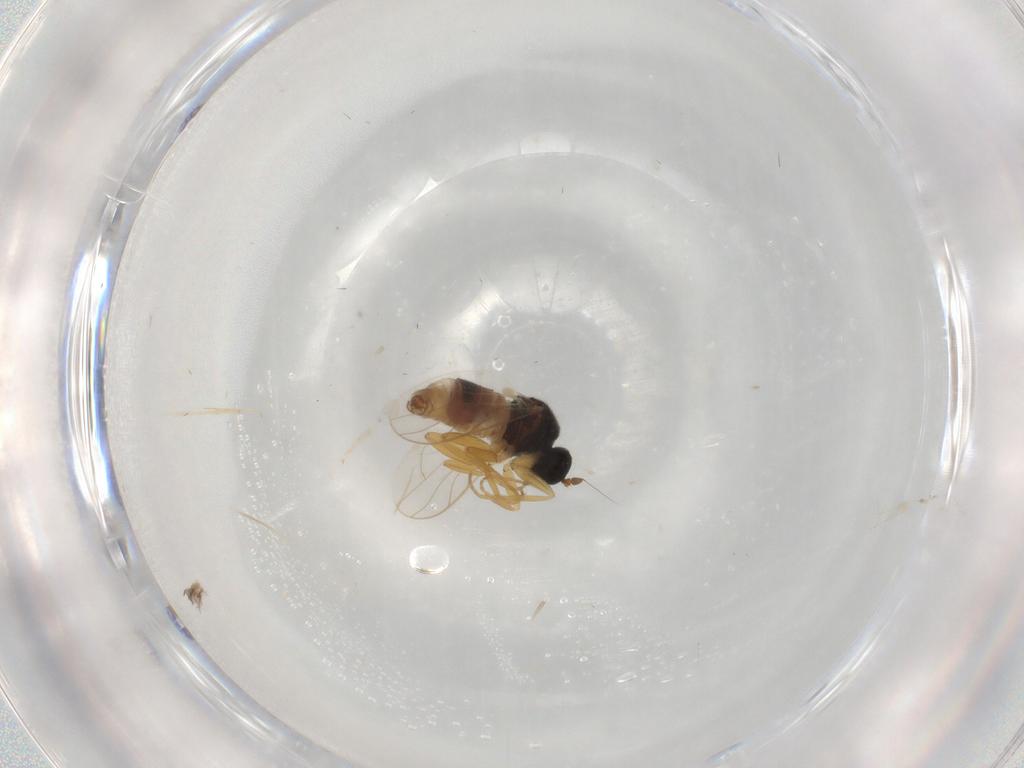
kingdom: Animalia
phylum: Arthropoda
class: Insecta
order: Diptera
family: Hybotidae
